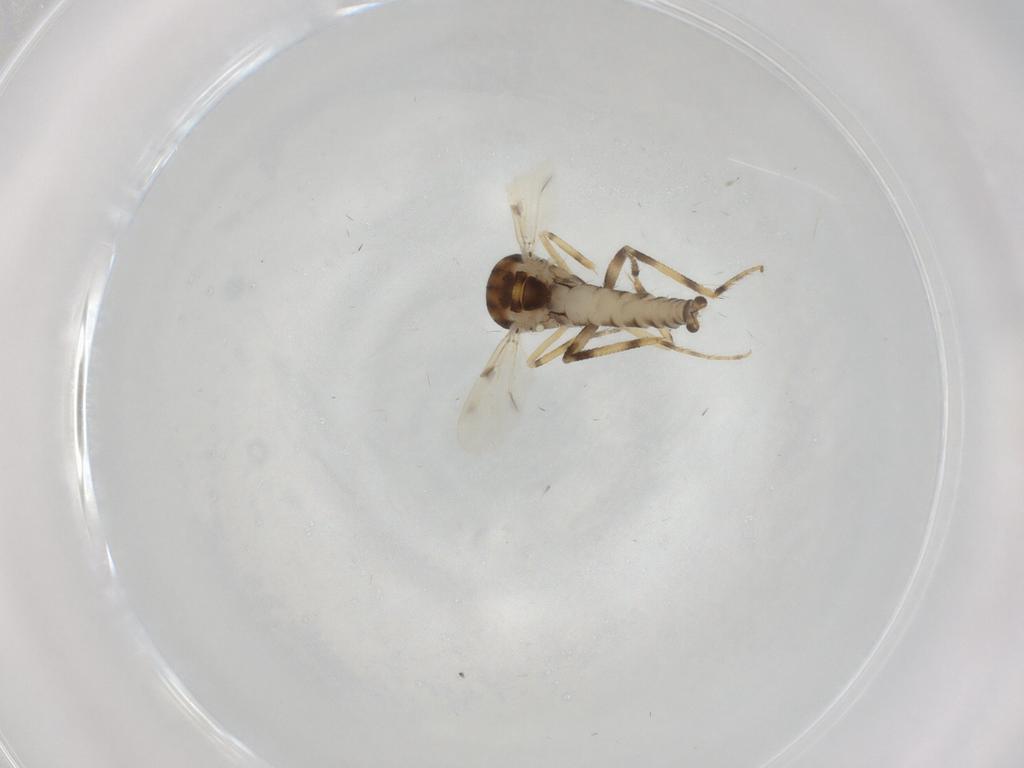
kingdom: Animalia
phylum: Arthropoda
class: Insecta
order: Diptera
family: Ceratopogonidae
